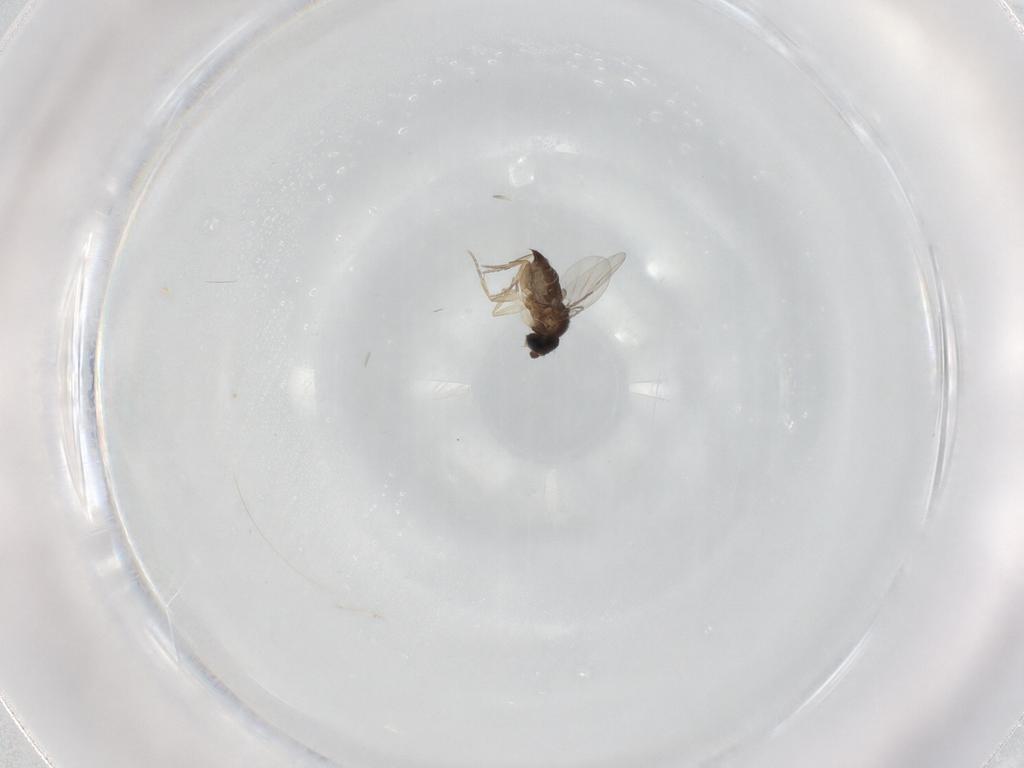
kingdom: Animalia
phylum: Arthropoda
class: Insecta
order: Diptera
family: Phoridae
